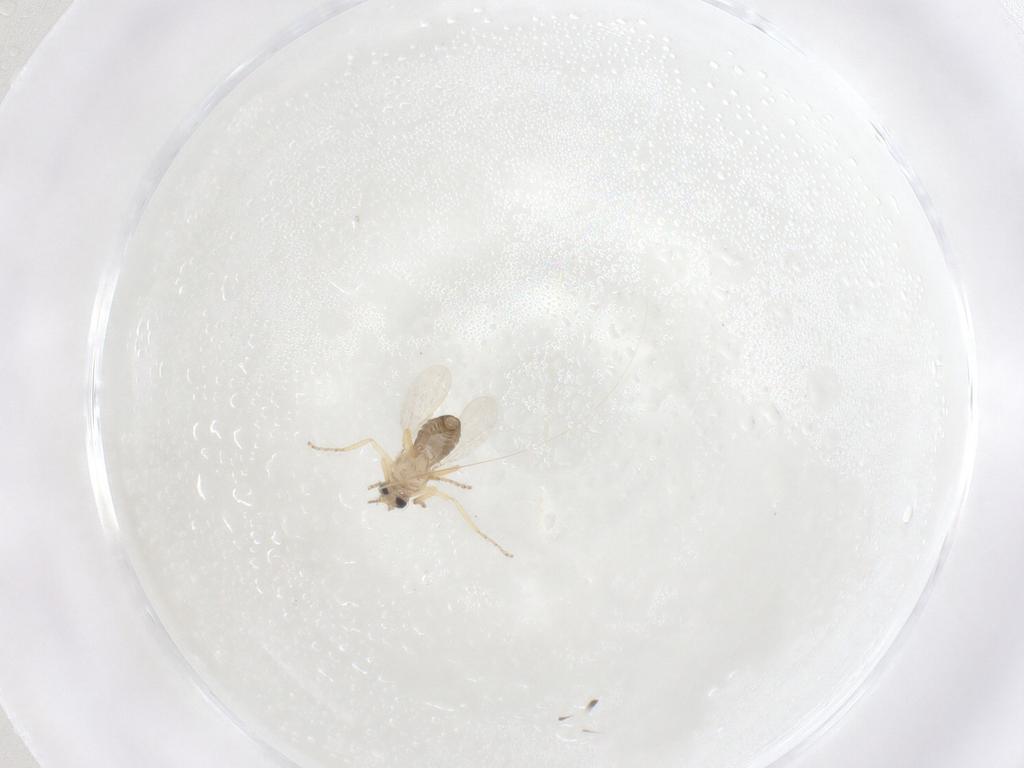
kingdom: Animalia
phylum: Arthropoda
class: Insecta
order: Diptera
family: Ceratopogonidae
